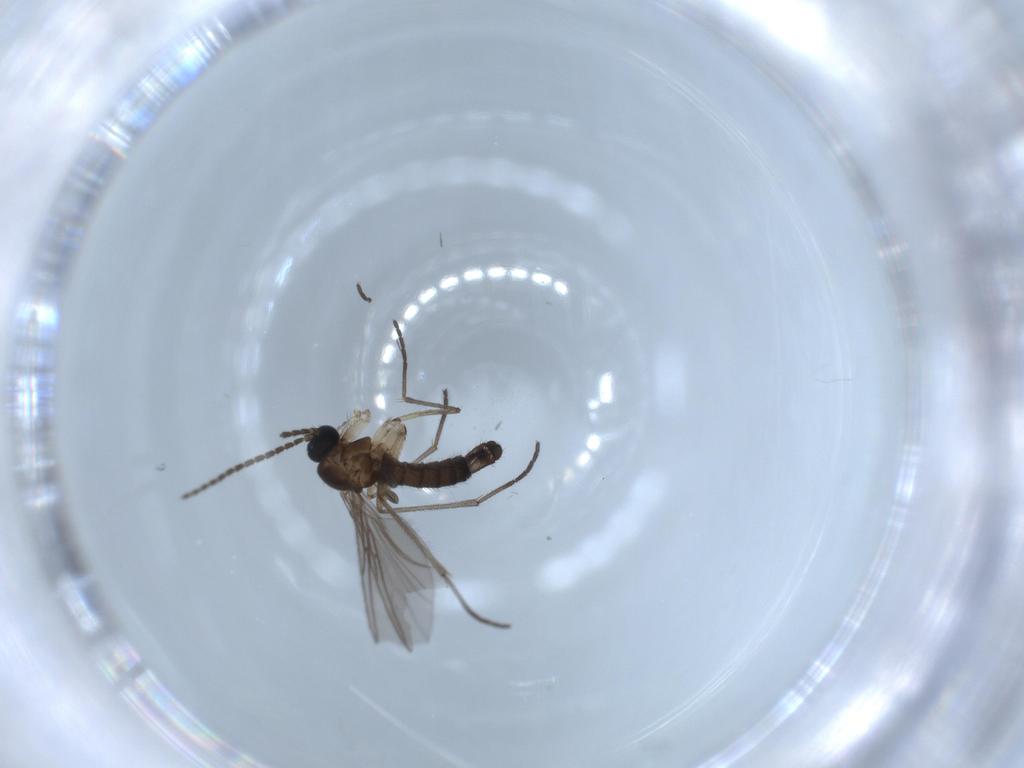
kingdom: Animalia
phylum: Arthropoda
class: Insecta
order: Diptera
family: Sciaridae
